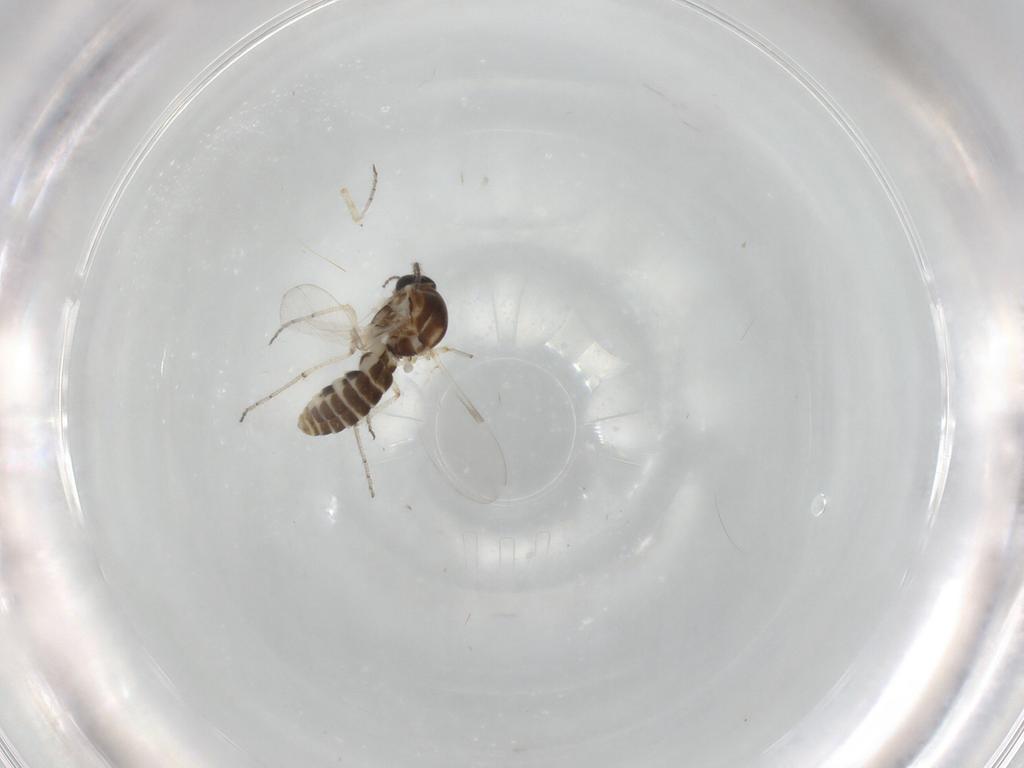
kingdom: Animalia
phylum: Arthropoda
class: Insecta
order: Diptera
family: Ceratopogonidae
